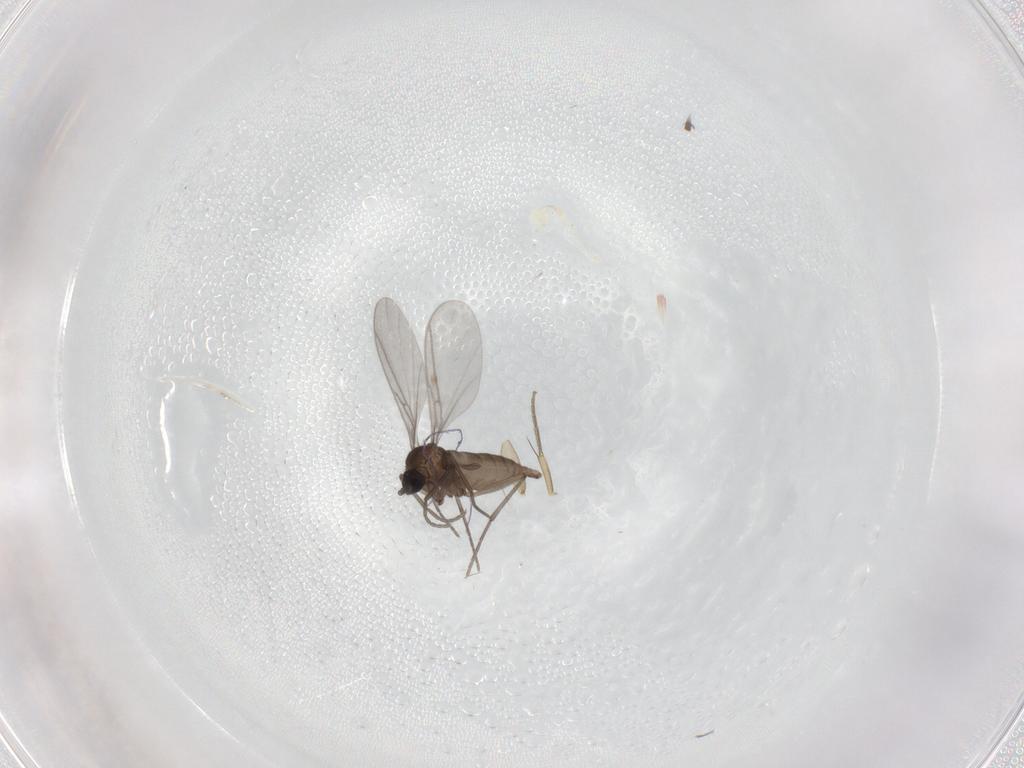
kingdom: Animalia
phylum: Arthropoda
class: Insecta
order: Diptera
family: Sciaridae
